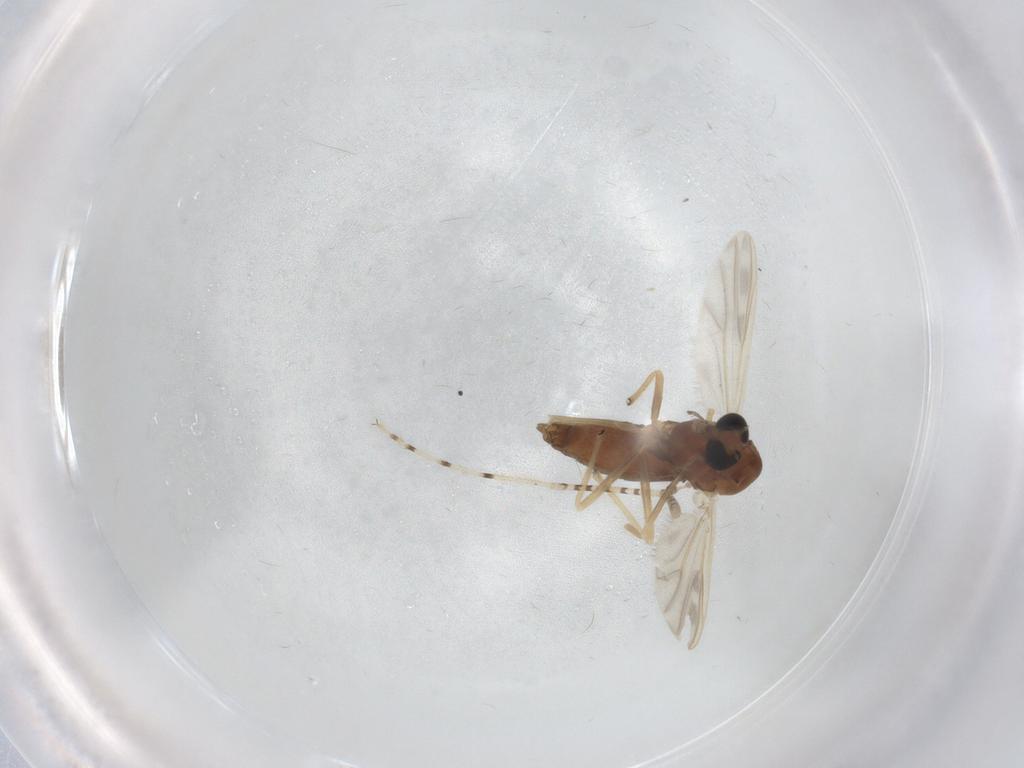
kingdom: Animalia
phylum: Arthropoda
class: Insecta
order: Diptera
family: Chironomidae
